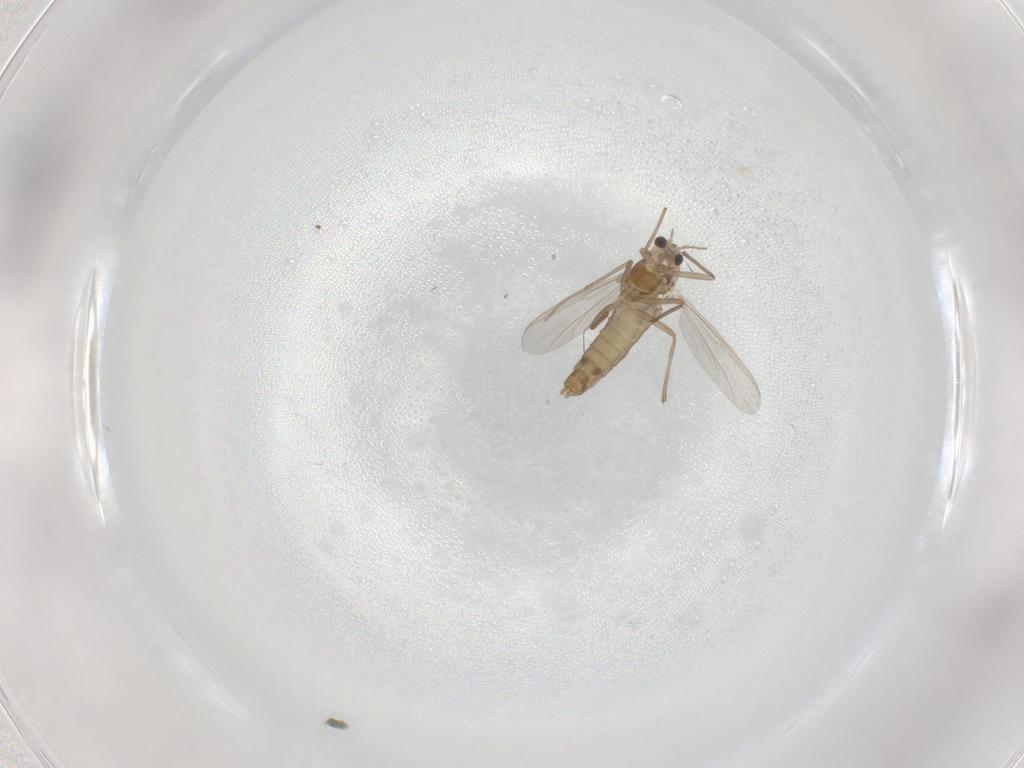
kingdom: Animalia
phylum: Arthropoda
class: Insecta
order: Diptera
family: Chironomidae
